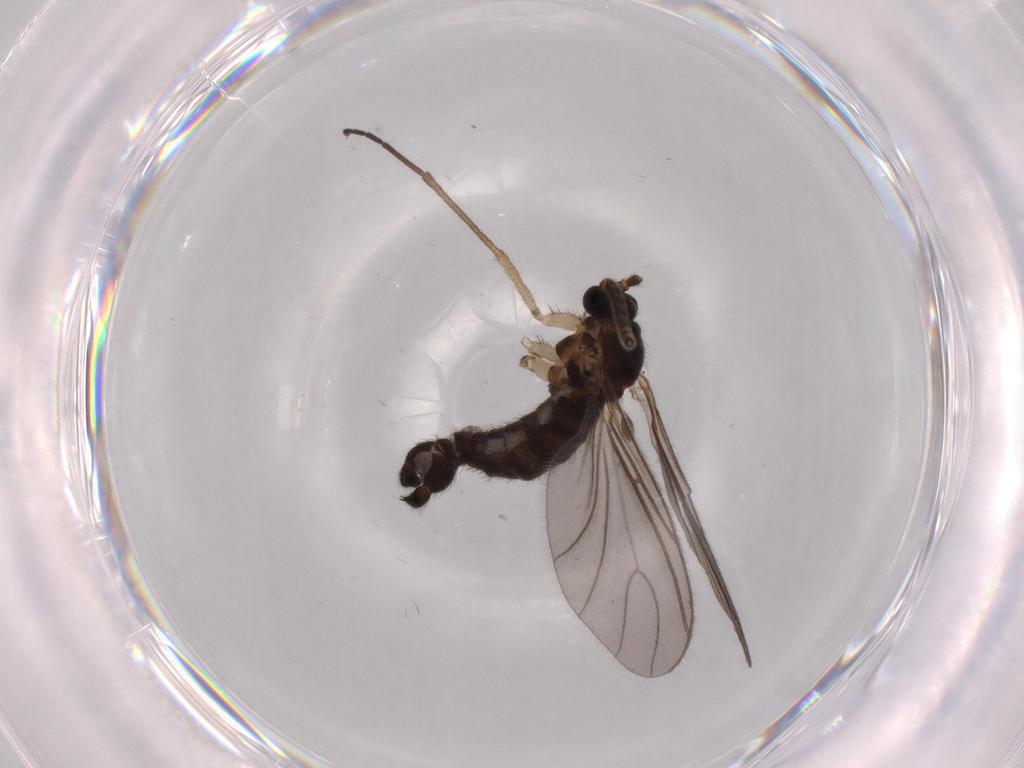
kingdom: Animalia
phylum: Arthropoda
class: Insecta
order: Diptera
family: Sciaridae
